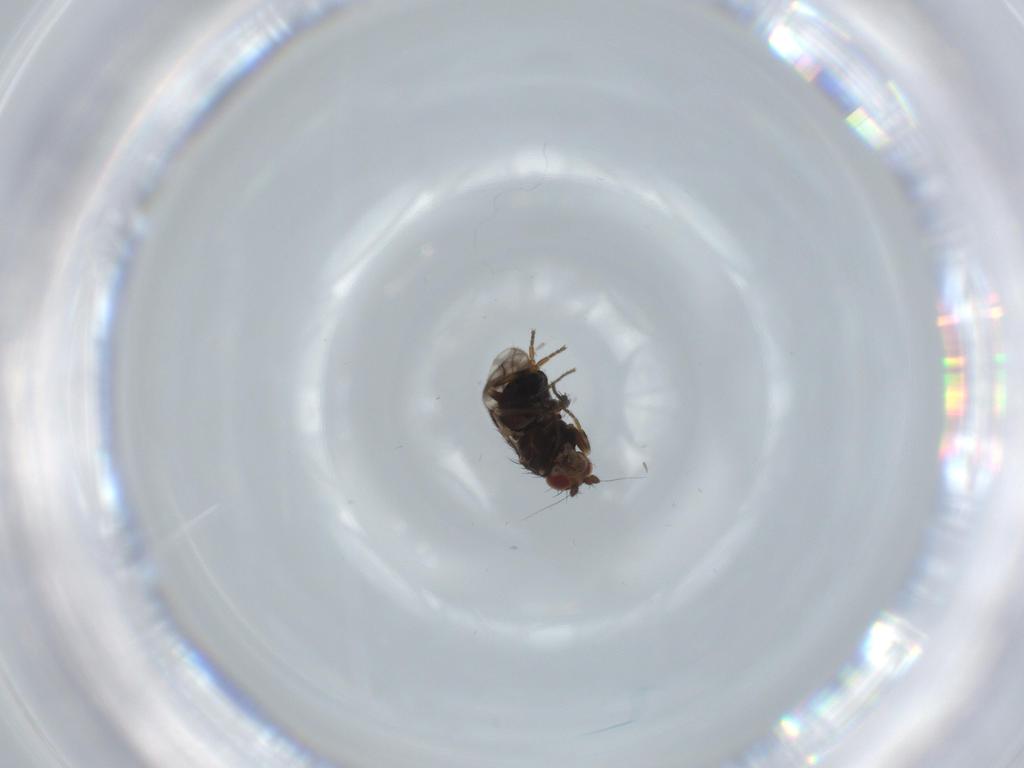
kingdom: Animalia
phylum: Arthropoda
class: Insecta
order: Diptera
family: Sphaeroceridae
